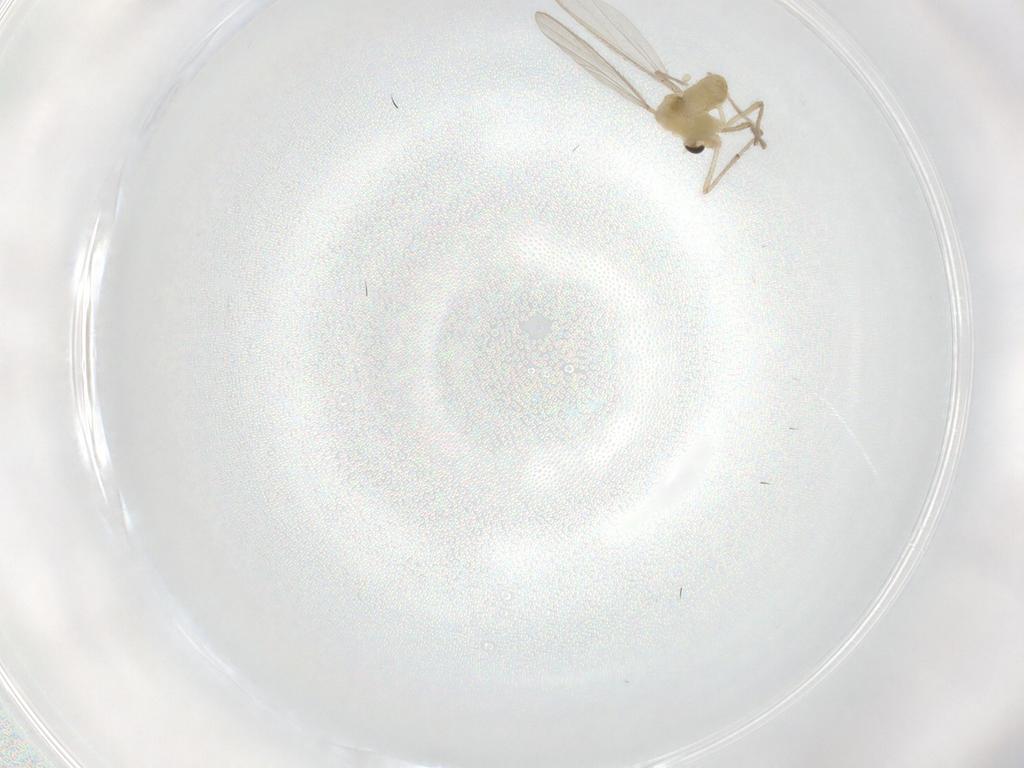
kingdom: Animalia
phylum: Arthropoda
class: Insecta
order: Diptera
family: Chironomidae
